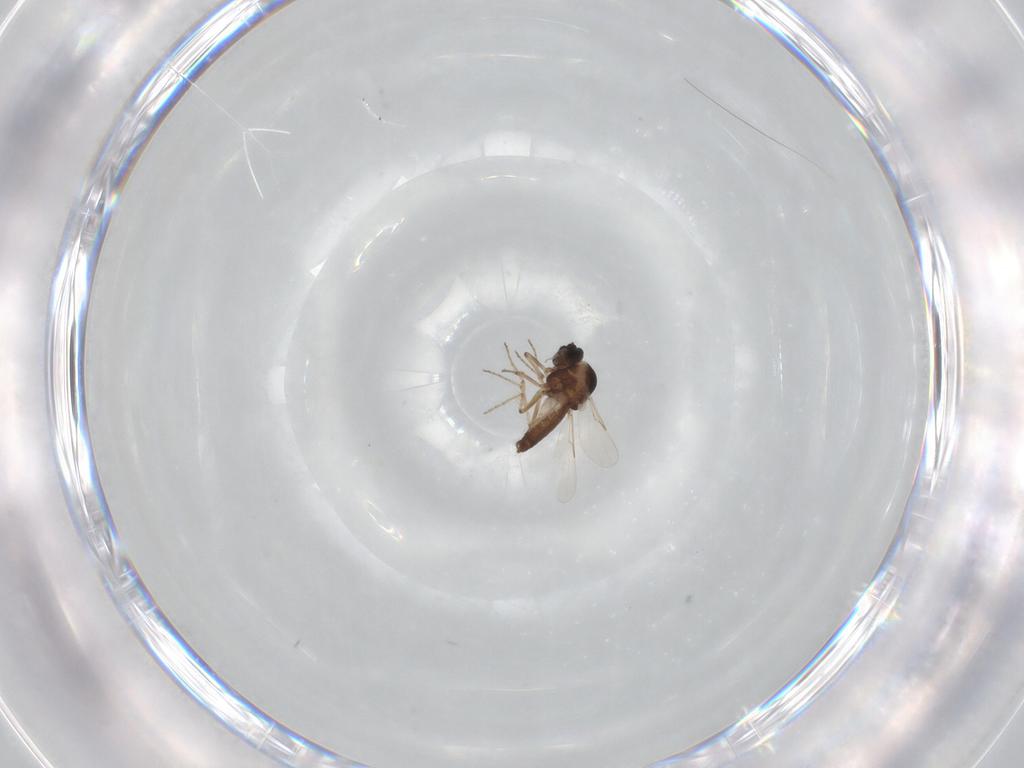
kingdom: Animalia
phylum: Arthropoda
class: Insecta
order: Diptera
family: Ceratopogonidae
